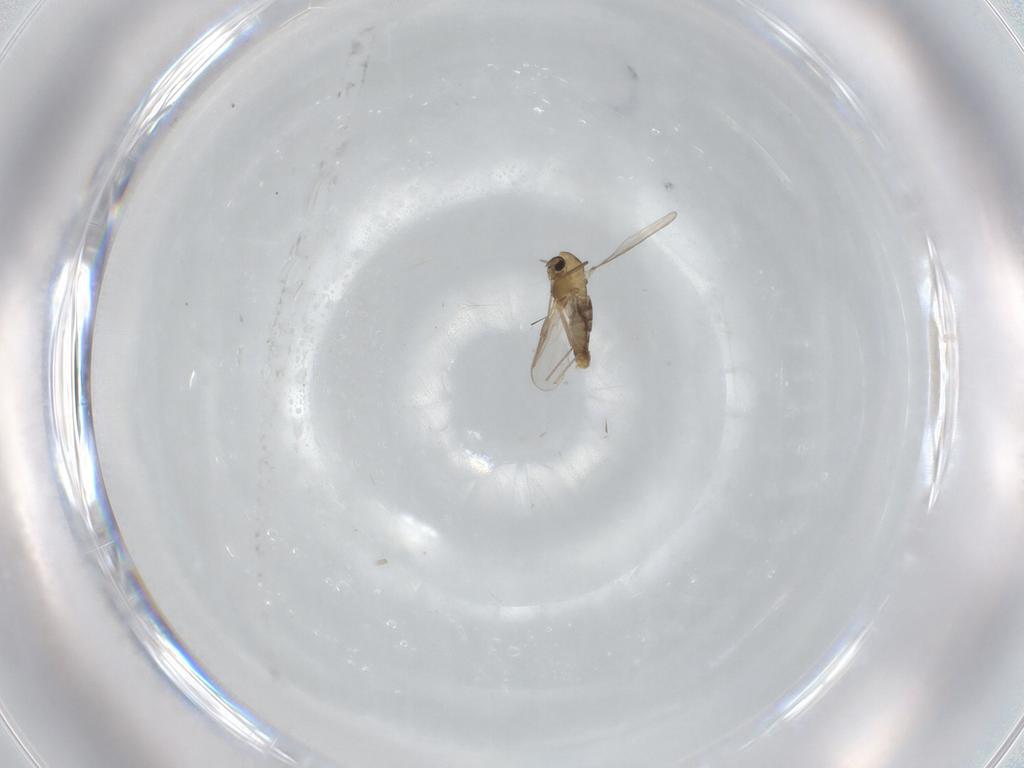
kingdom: Animalia
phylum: Arthropoda
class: Insecta
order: Diptera
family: Chironomidae
